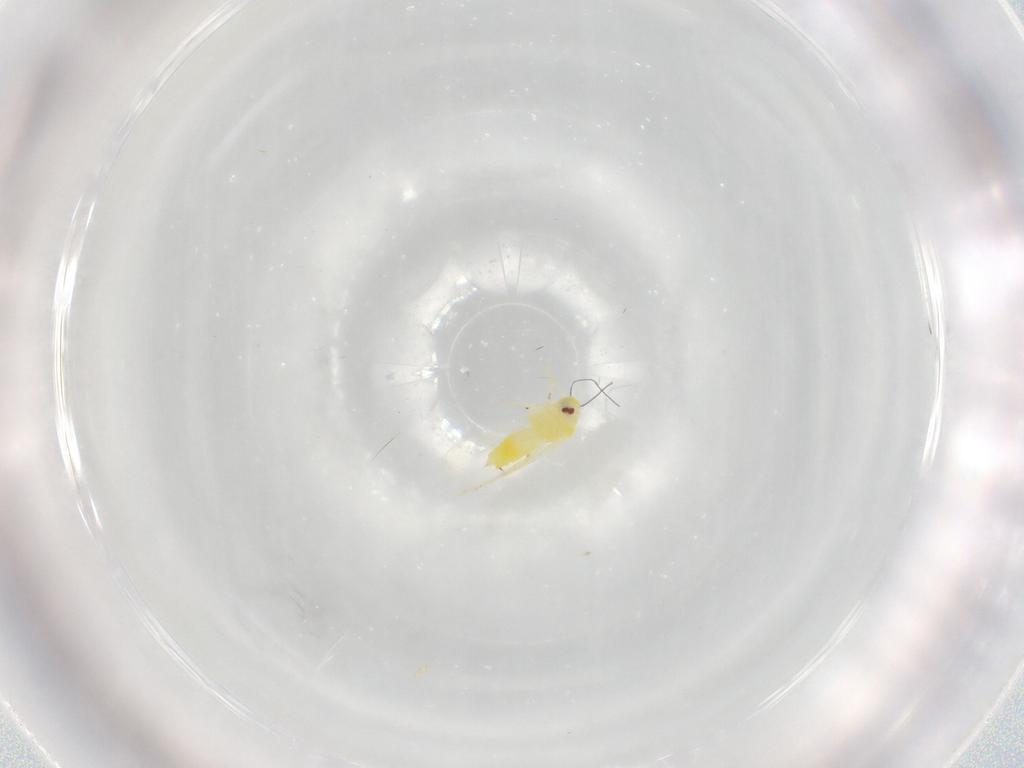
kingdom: Animalia
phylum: Arthropoda
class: Insecta
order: Hemiptera
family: Aleyrodidae
